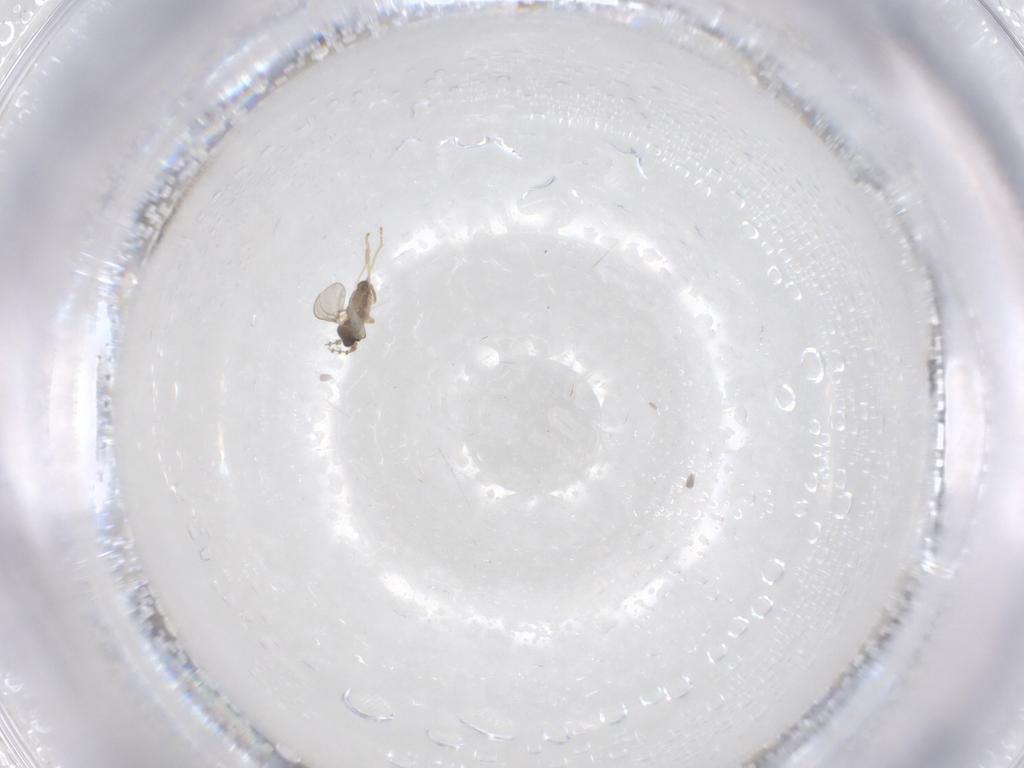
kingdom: Animalia
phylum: Arthropoda
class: Insecta
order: Diptera
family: Cecidomyiidae
